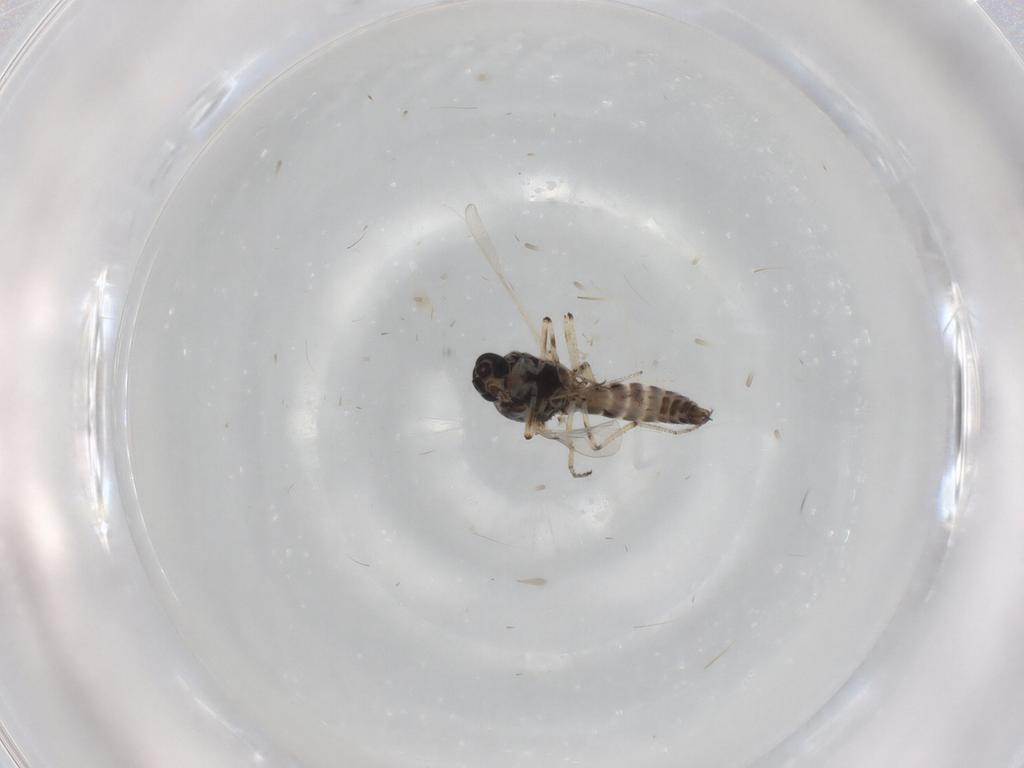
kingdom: Animalia
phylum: Arthropoda
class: Insecta
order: Diptera
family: Ceratopogonidae
